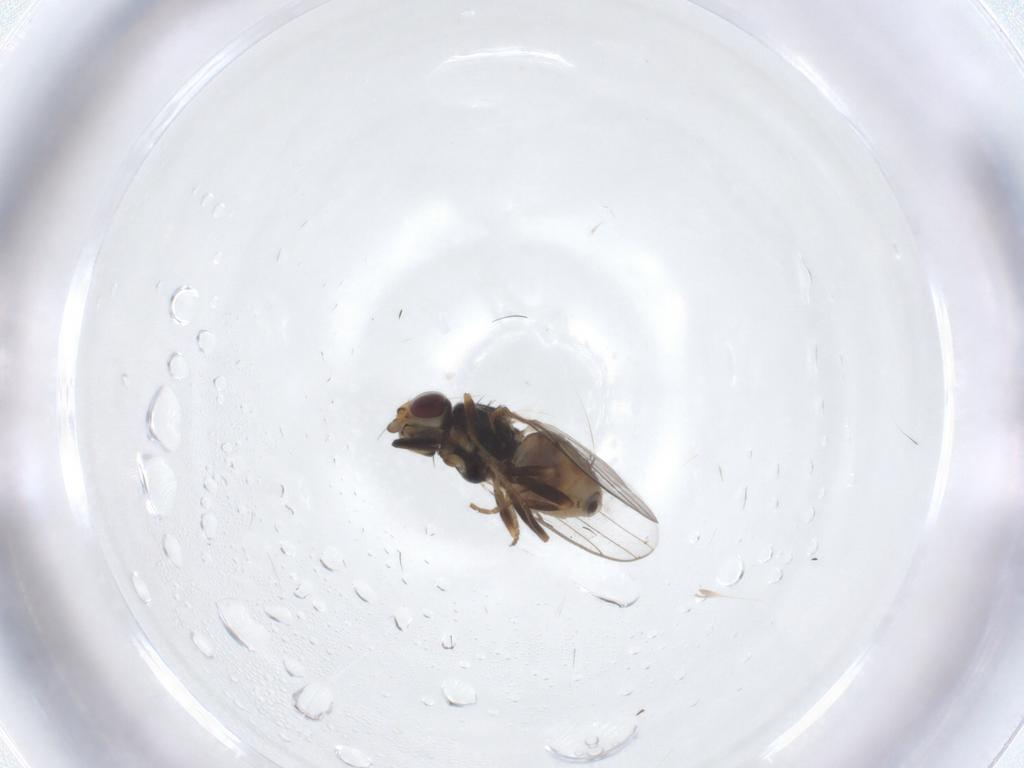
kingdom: Animalia
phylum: Arthropoda
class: Insecta
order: Diptera
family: Chloropidae
